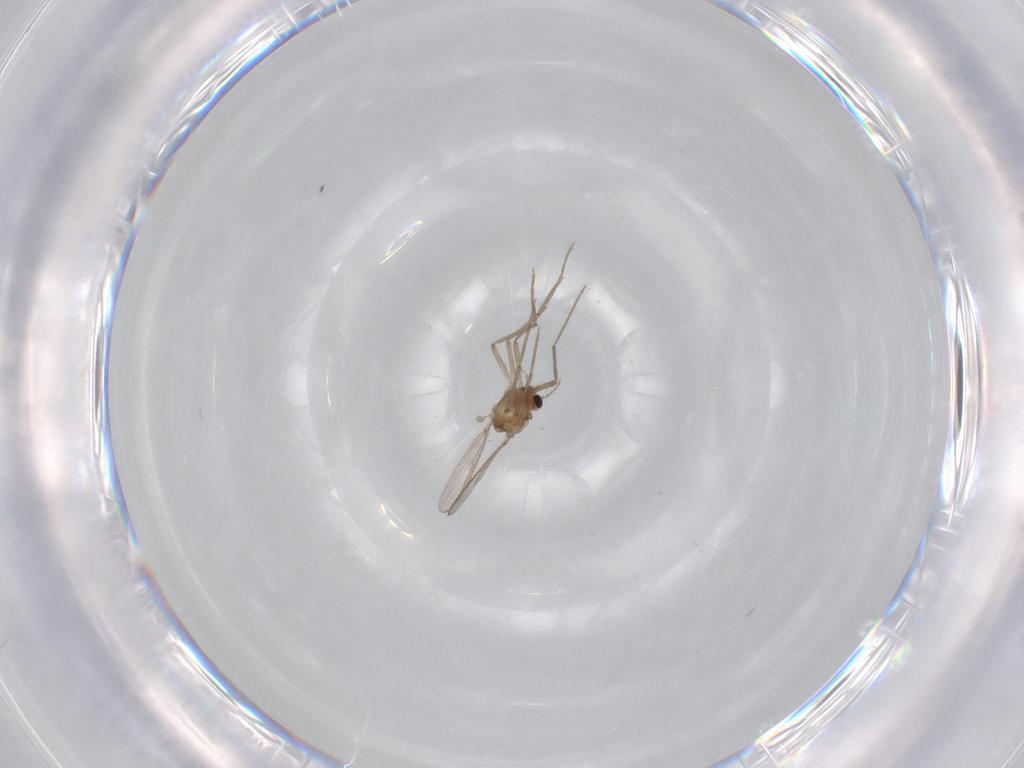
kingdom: Animalia
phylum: Arthropoda
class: Insecta
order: Diptera
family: Chironomidae
